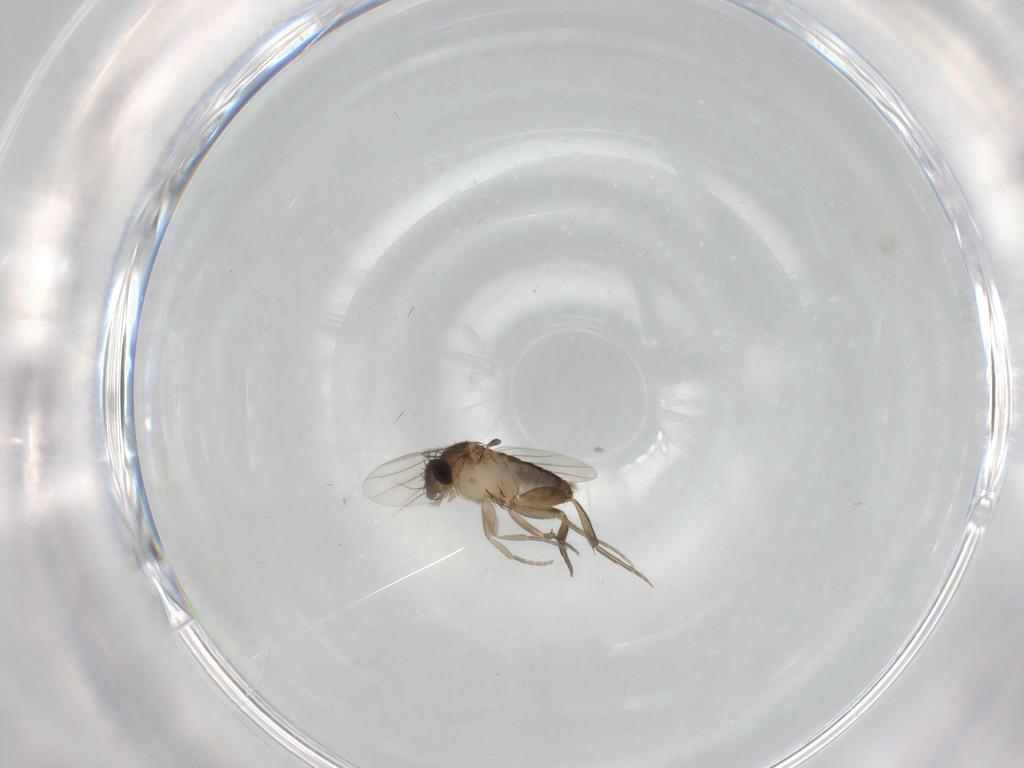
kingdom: Animalia
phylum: Arthropoda
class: Insecta
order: Diptera
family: Phoridae
